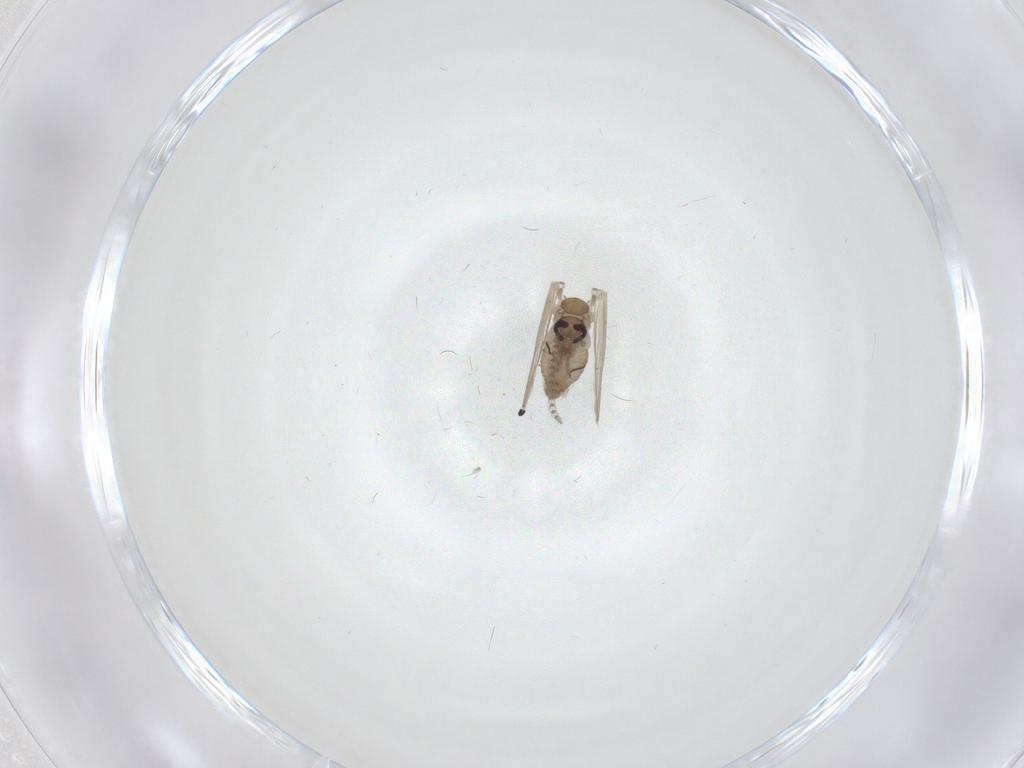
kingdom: Animalia
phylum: Arthropoda
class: Insecta
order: Diptera
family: Psychodidae
